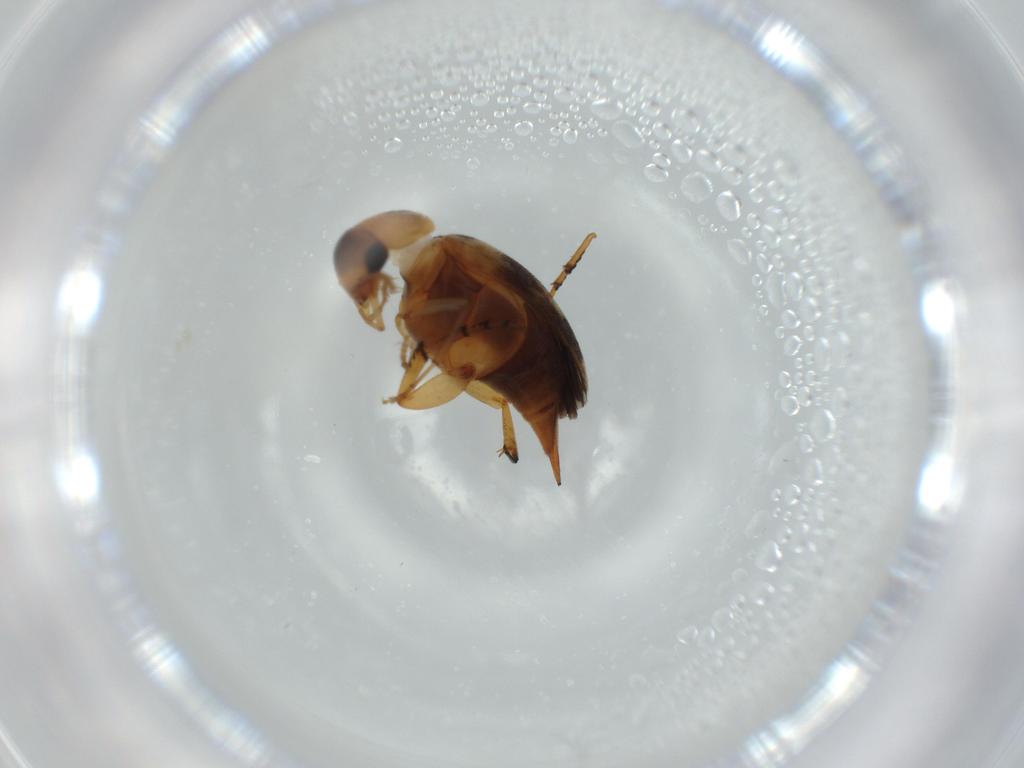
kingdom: Animalia
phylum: Arthropoda
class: Insecta
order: Coleoptera
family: Mordellidae
